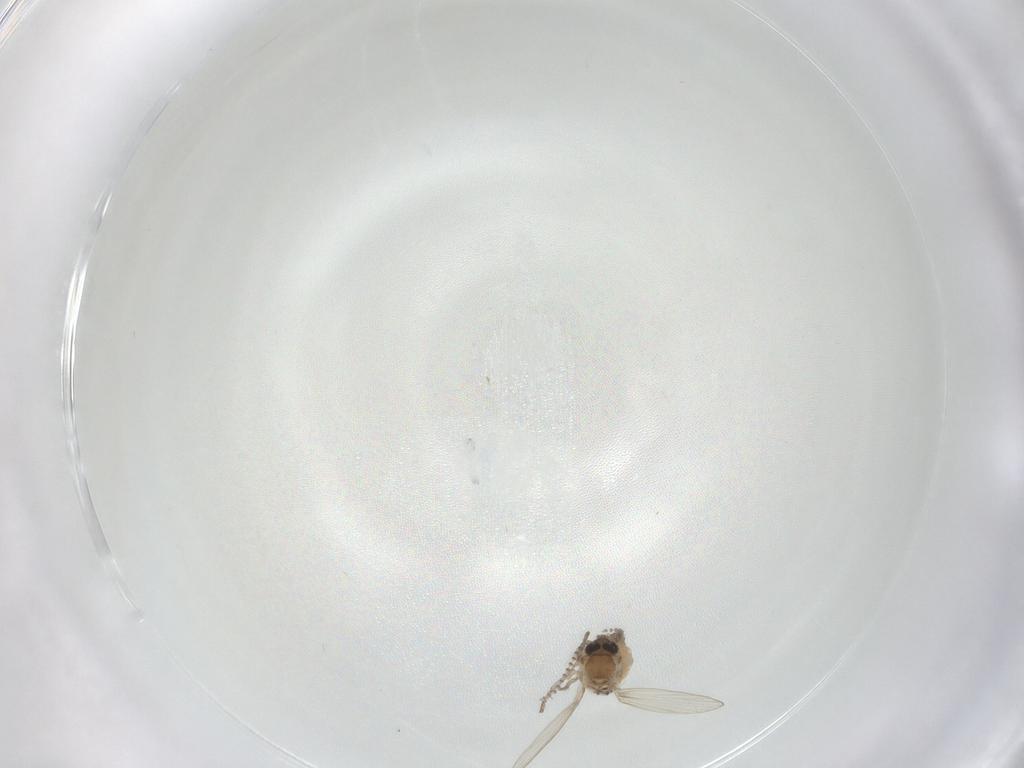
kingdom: Animalia
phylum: Arthropoda
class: Insecta
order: Diptera
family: Psychodidae
